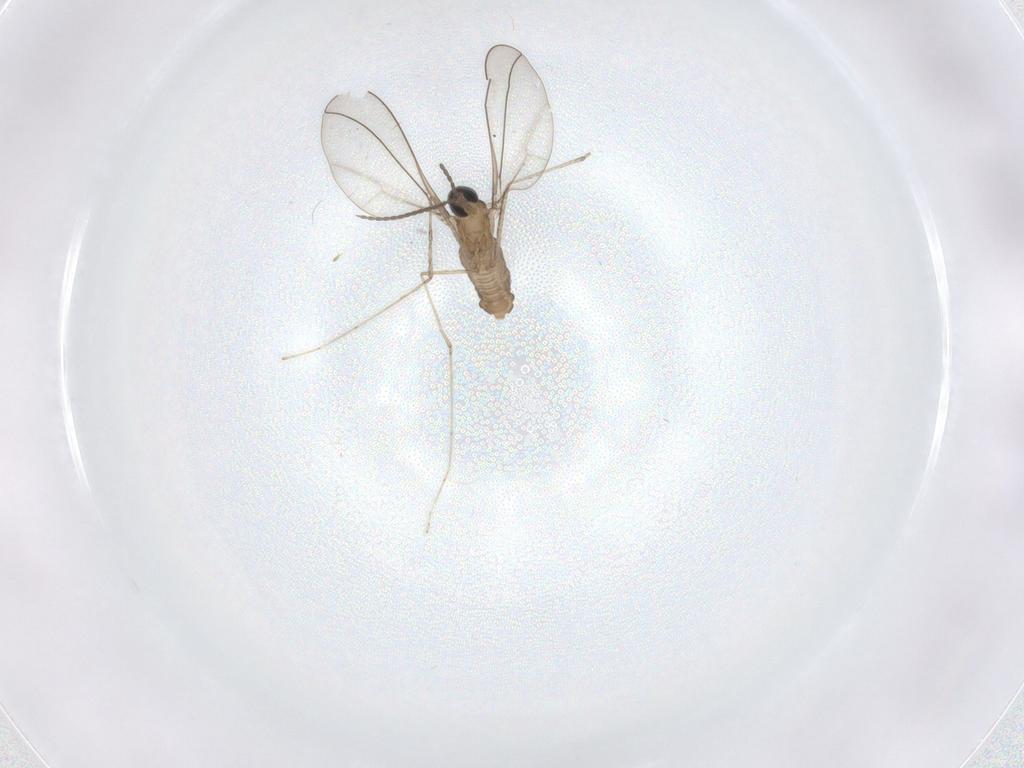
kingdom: Animalia
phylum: Arthropoda
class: Insecta
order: Diptera
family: Cecidomyiidae
